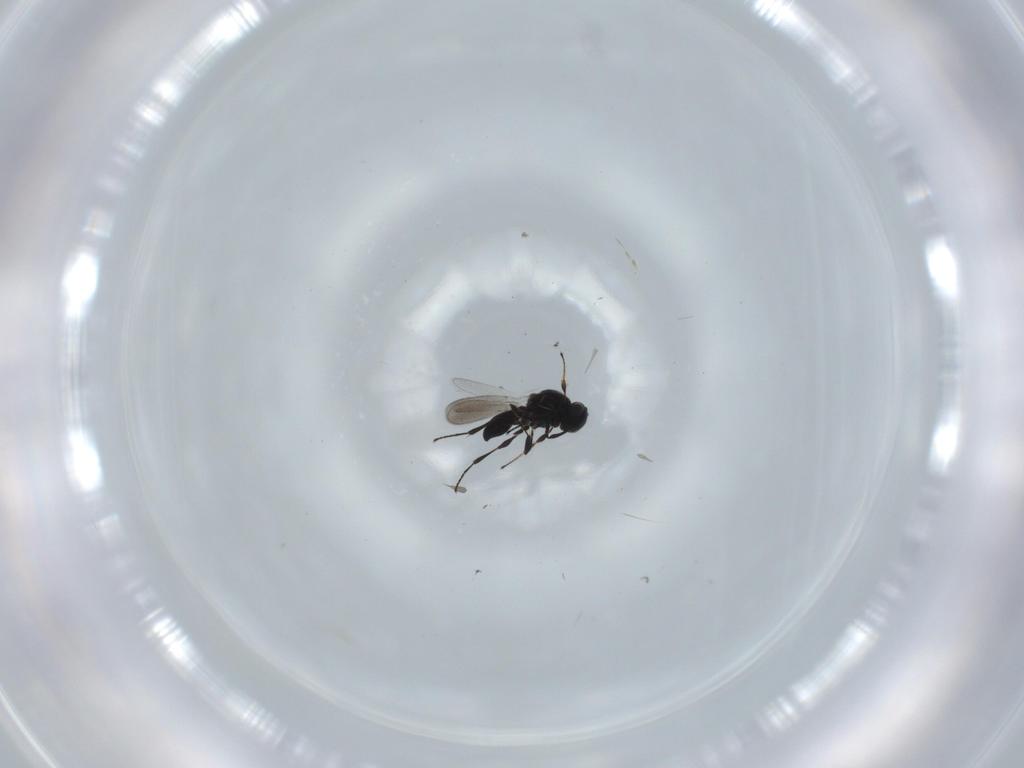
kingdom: Animalia
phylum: Arthropoda
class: Insecta
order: Hymenoptera
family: Platygastridae
